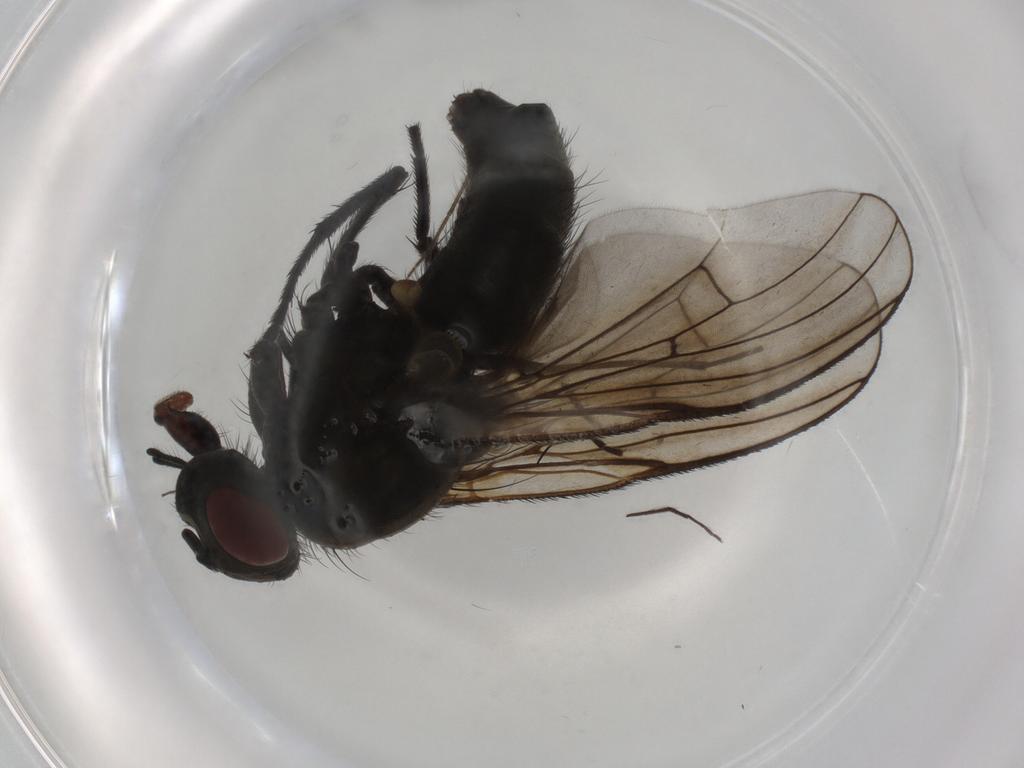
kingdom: Animalia
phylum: Arthropoda
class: Insecta
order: Diptera
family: Muscidae
